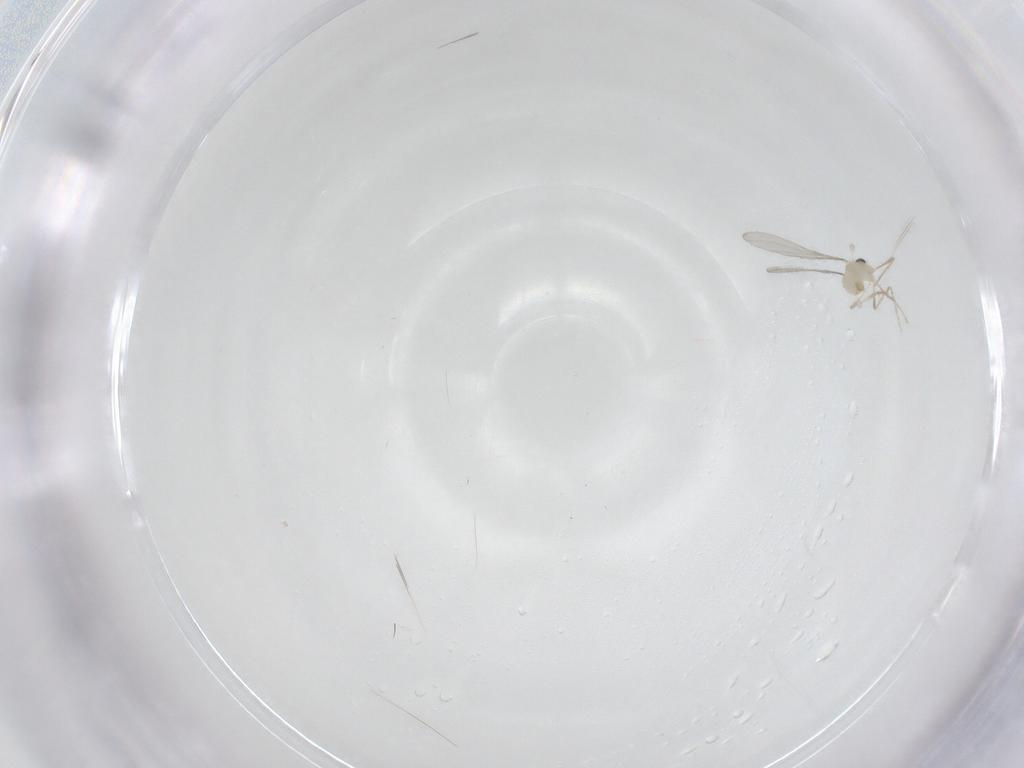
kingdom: Animalia
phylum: Arthropoda
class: Insecta
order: Diptera
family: Cecidomyiidae
